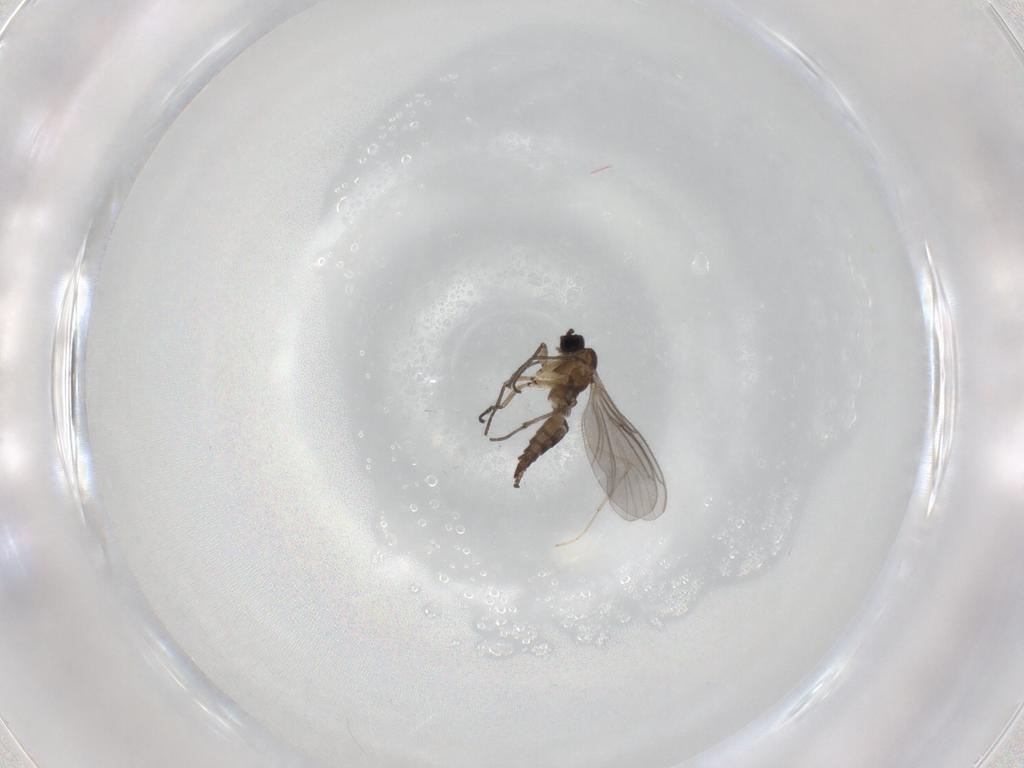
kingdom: Animalia
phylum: Arthropoda
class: Insecta
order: Diptera
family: Sciaridae
